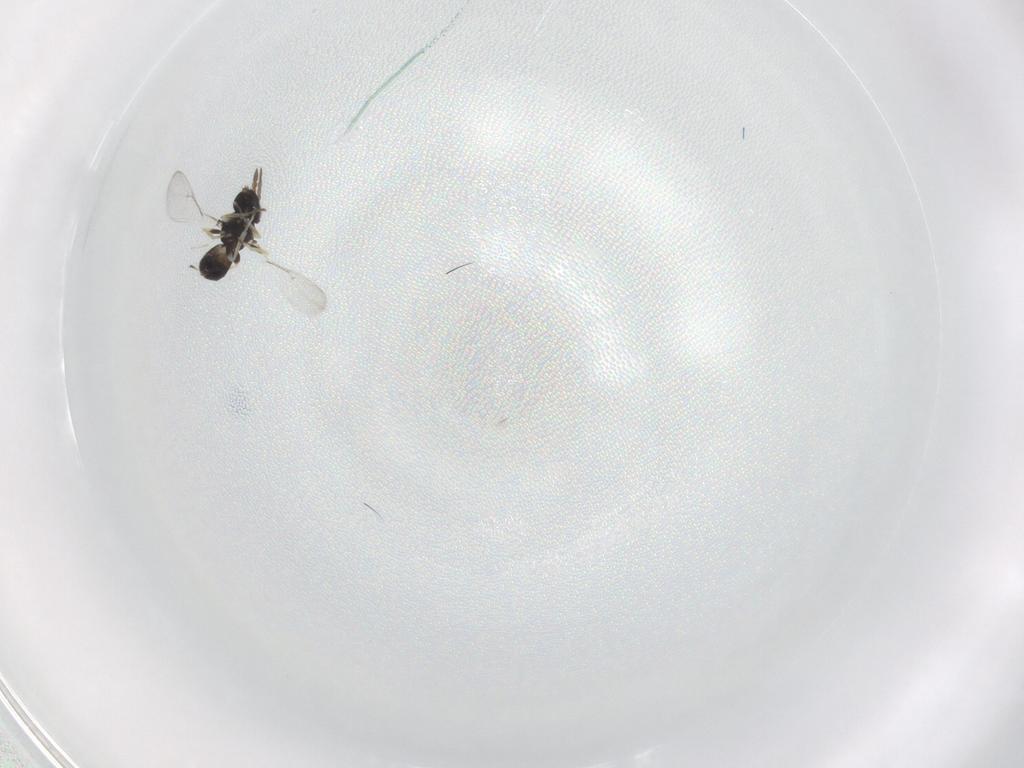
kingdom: Animalia
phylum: Arthropoda
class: Insecta
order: Hymenoptera
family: Eulophidae
